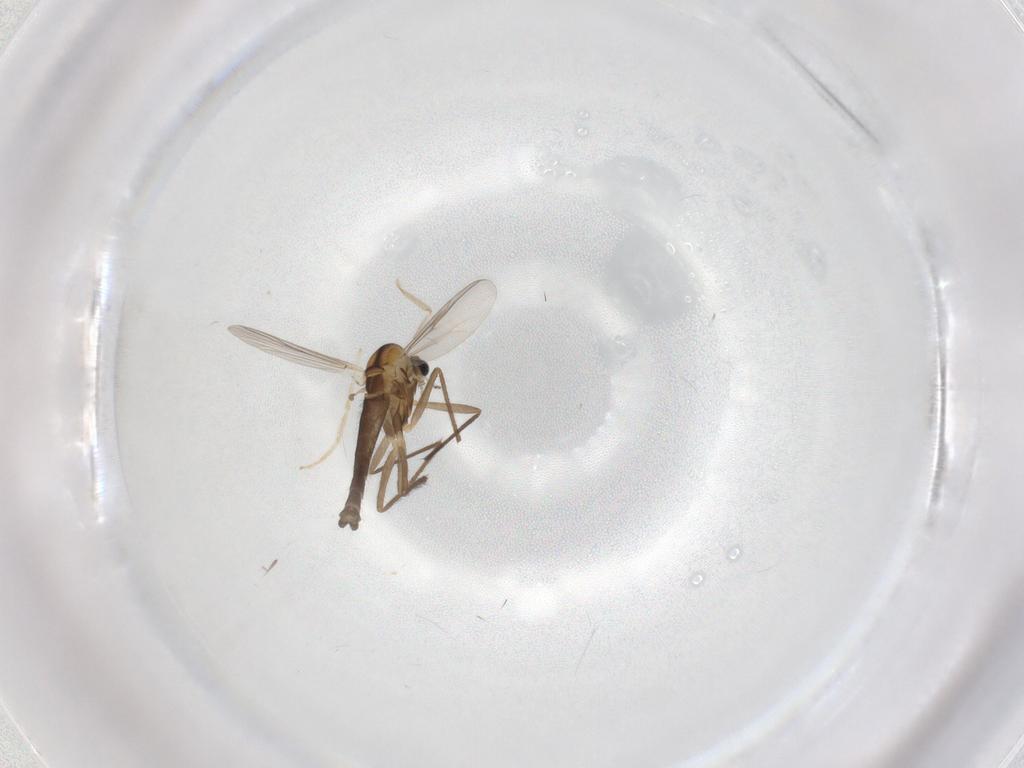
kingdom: Animalia
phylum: Arthropoda
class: Insecta
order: Diptera
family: Chironomidae
